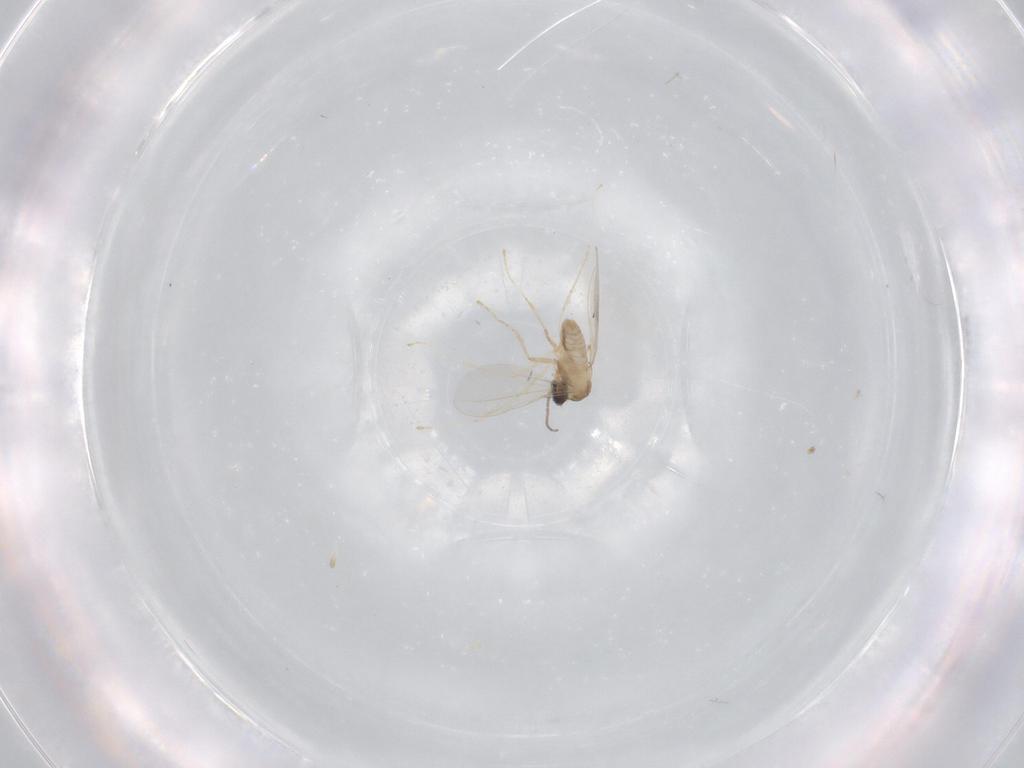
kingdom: Animalia
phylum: Arthropoda
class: Insecta
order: Diptera
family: Cecidomyiidae
